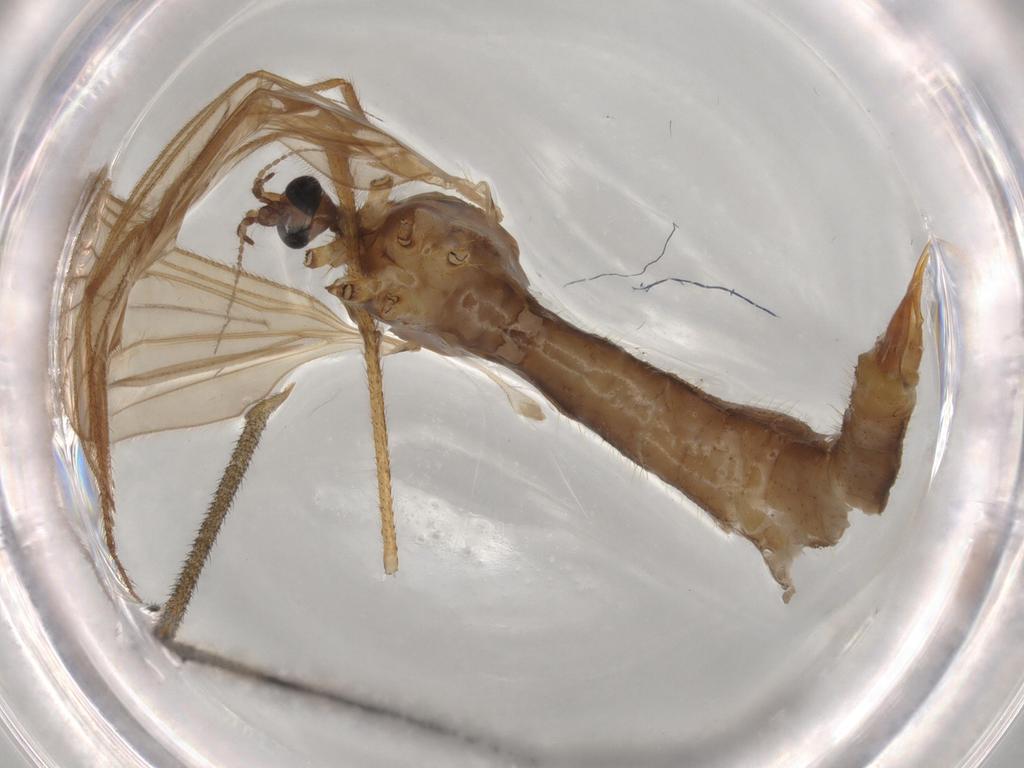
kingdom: Animalia
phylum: Arthropoda
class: Insecta
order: Diptera
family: Limoniidae
